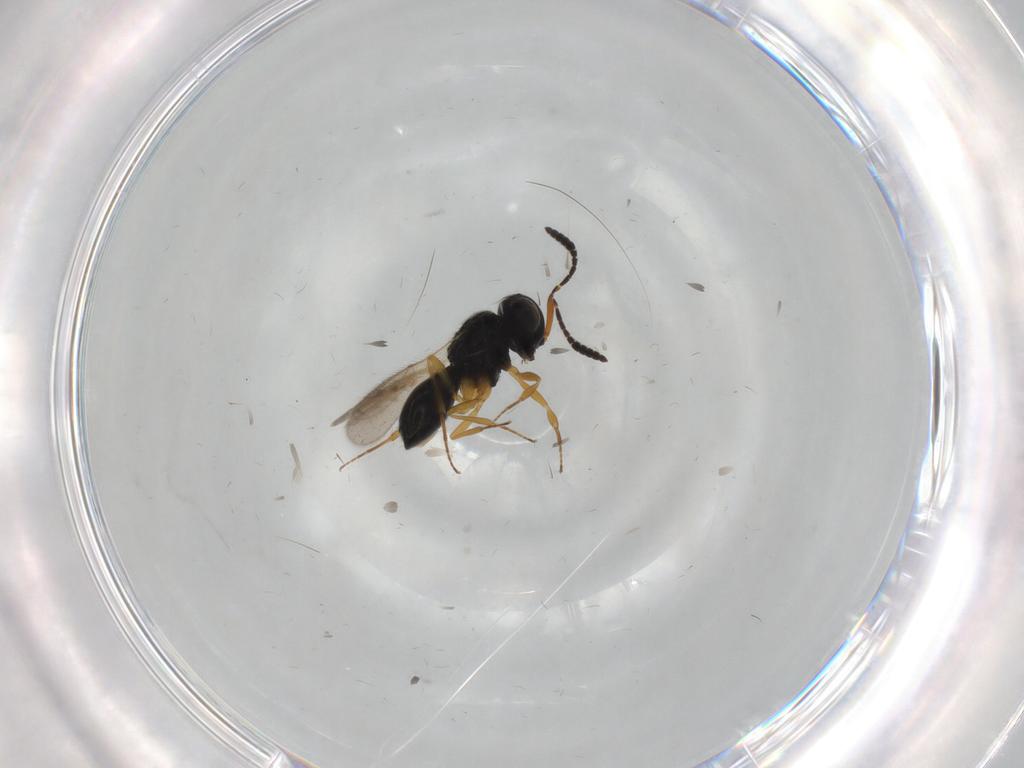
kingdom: Animalia
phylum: Arthropoda
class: Insecta
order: Hymenoptera
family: Scelionidae
